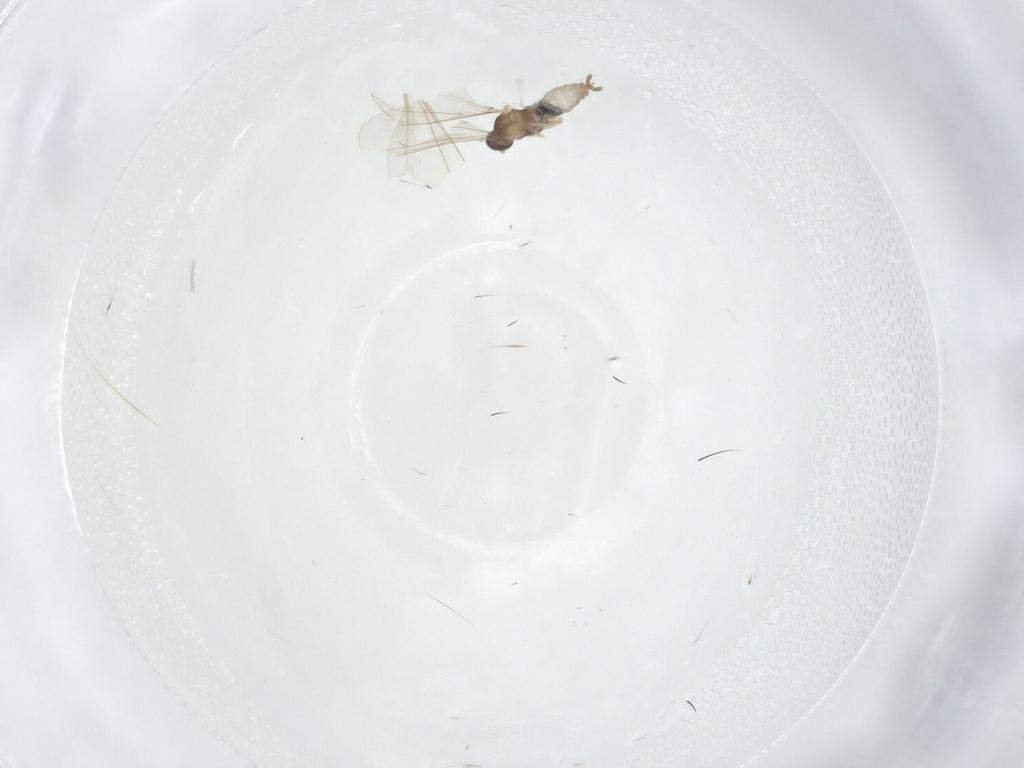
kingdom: Animalia
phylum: Arthropoda
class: Insecta
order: Diptera
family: Cecidomyiidae
